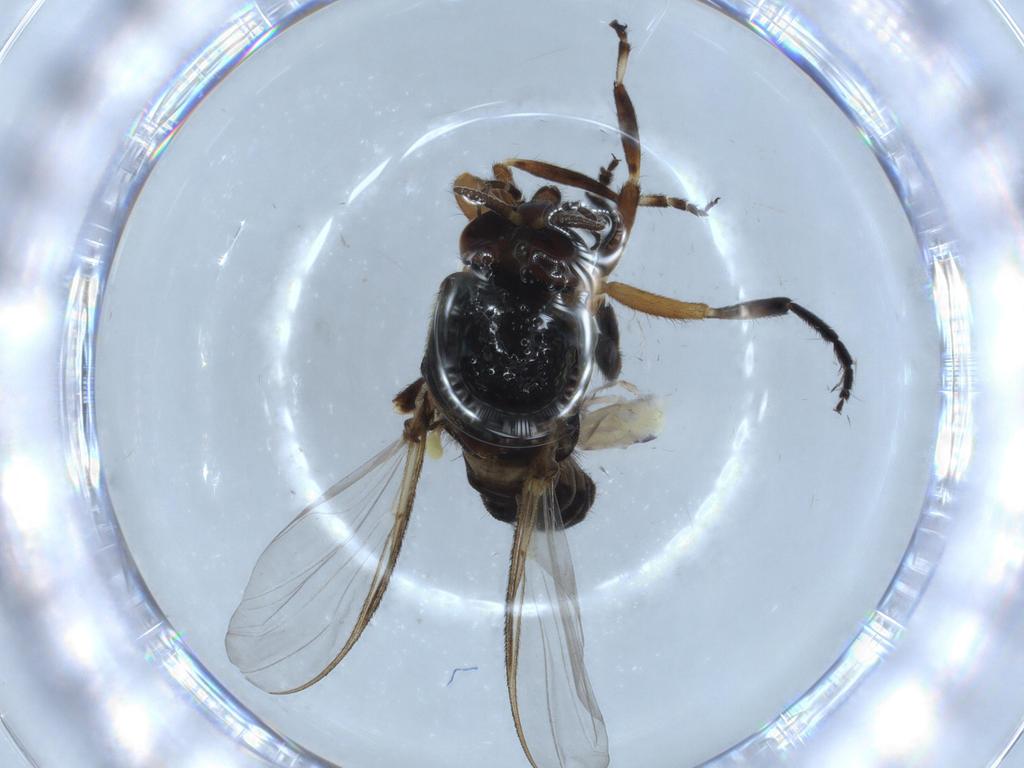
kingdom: Animalia
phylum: Arthropoda
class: Insecta
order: Diptera
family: Sciaridae
